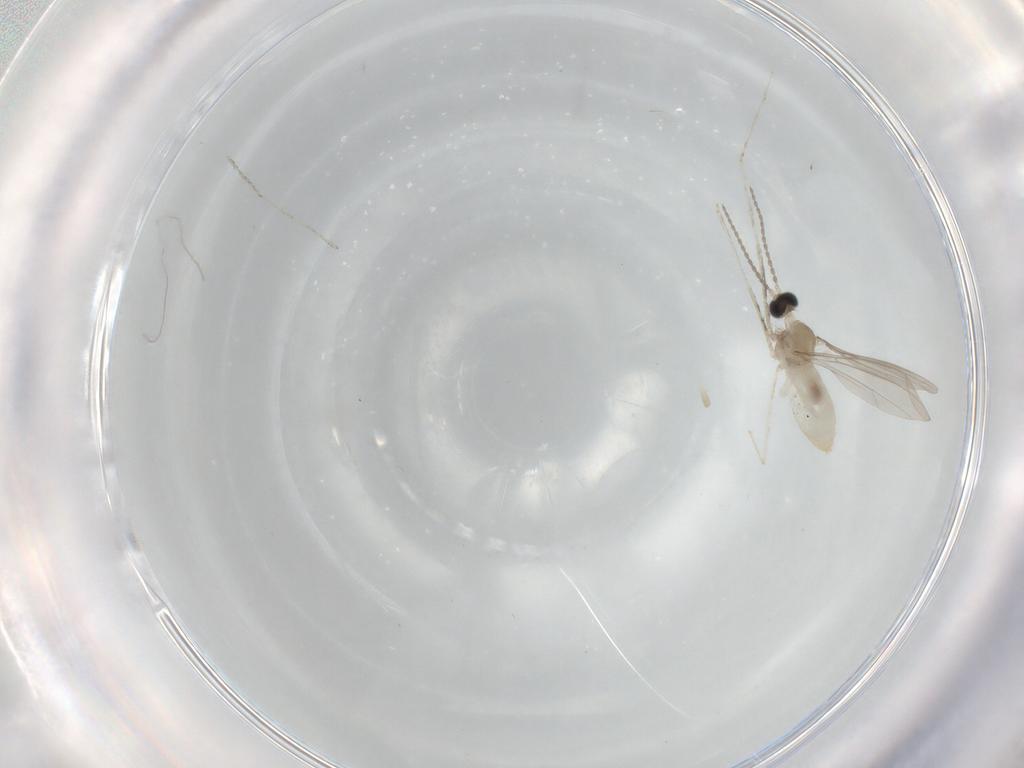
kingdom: Animalia
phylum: Arthropoda
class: Insecta
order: Diptera
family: Cecidomyiidae
